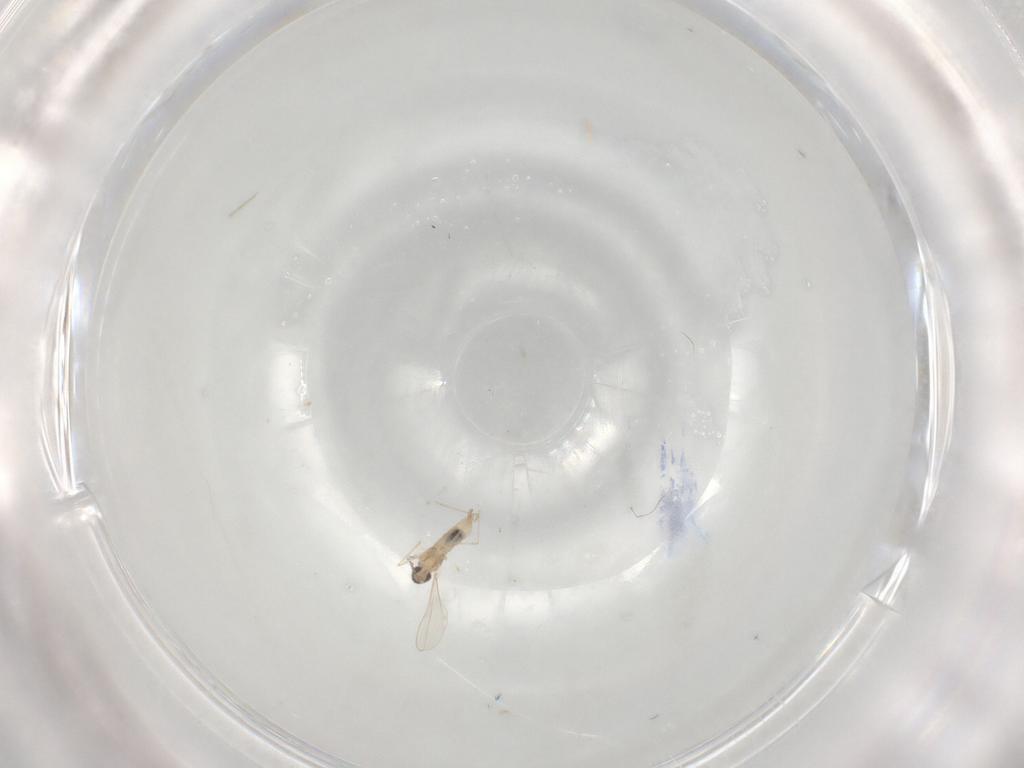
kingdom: Animalia
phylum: Arthropoda
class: Insecta
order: Diptera
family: Cecidomyiidae
